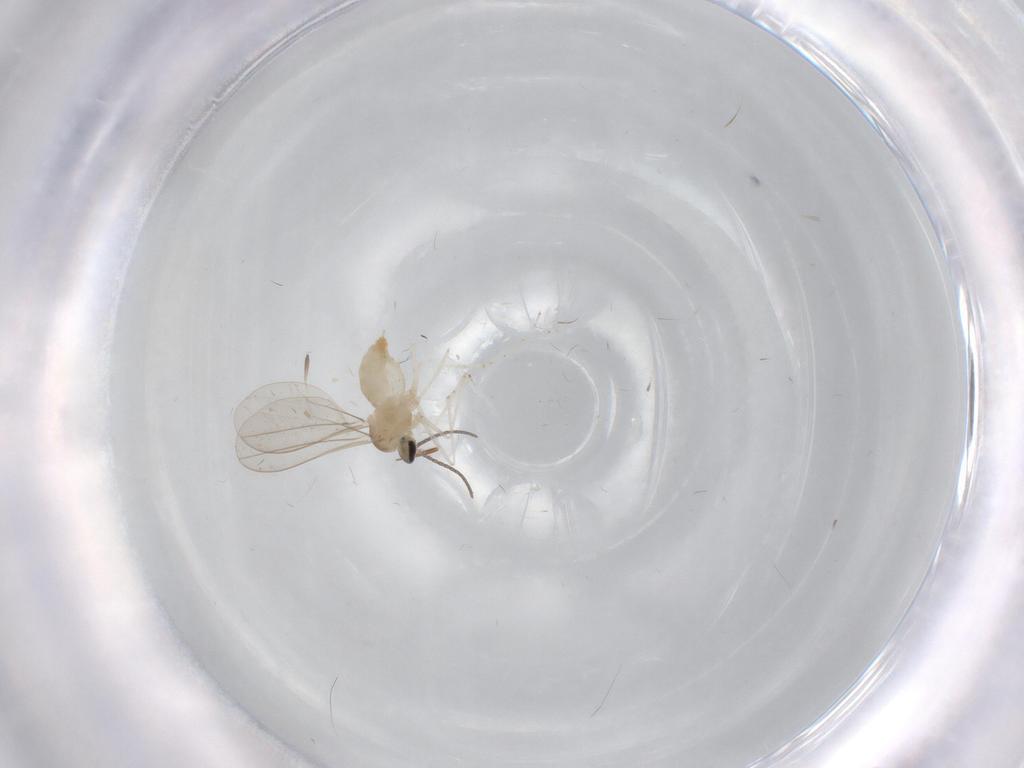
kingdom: Animalia
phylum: Arthropoda
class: Insecta
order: Diptera
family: Cecidomyiidae
